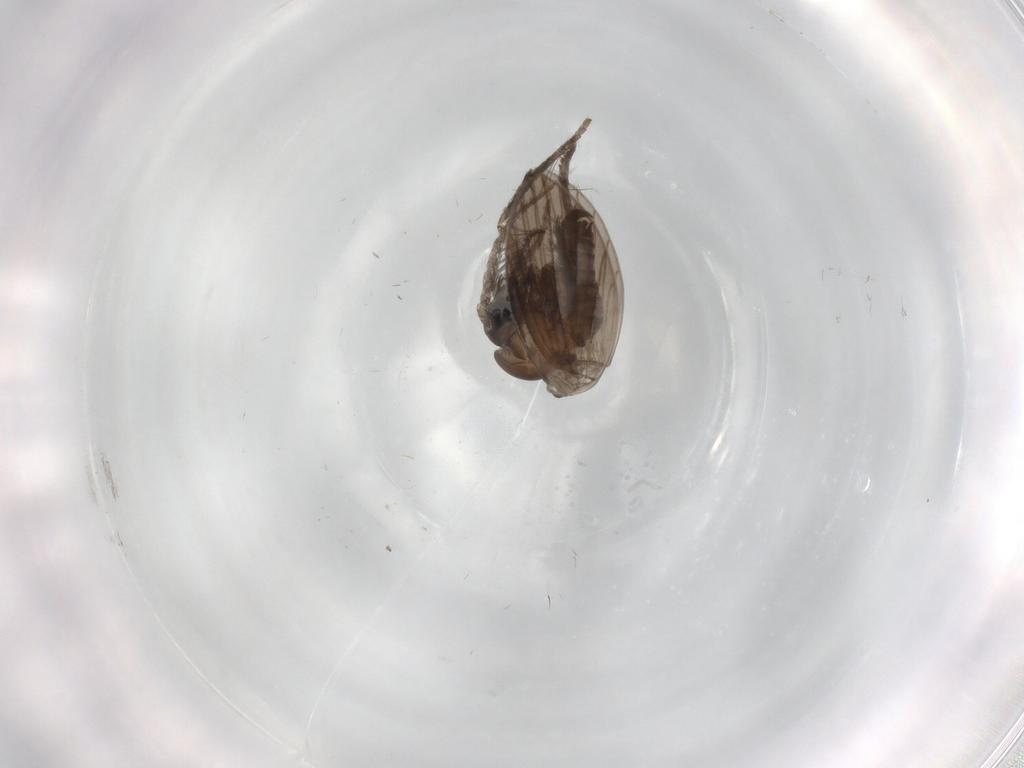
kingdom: Animalia
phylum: Arthropoda
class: Insecta
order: Diptera
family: Psychodidae
